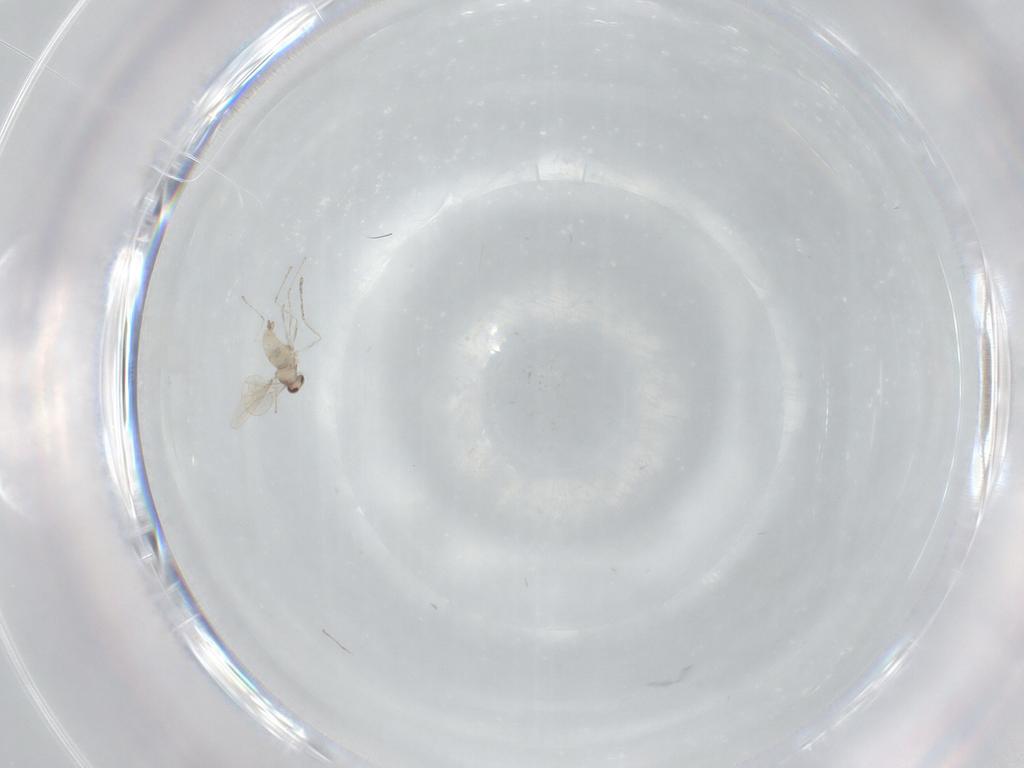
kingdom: Animalia
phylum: Arthropoda
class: Insecta
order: Diptera
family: Cecidomyiidae
